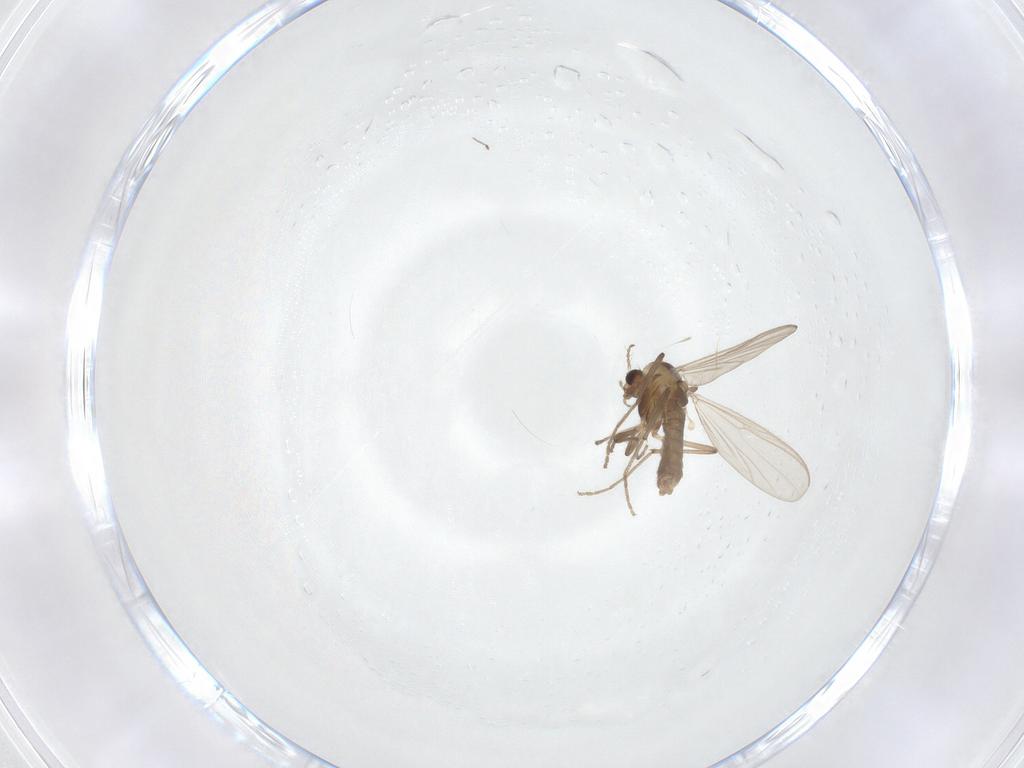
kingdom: Animalia
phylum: Arthropoda
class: Insecta
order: Diptera
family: Chironomidae
